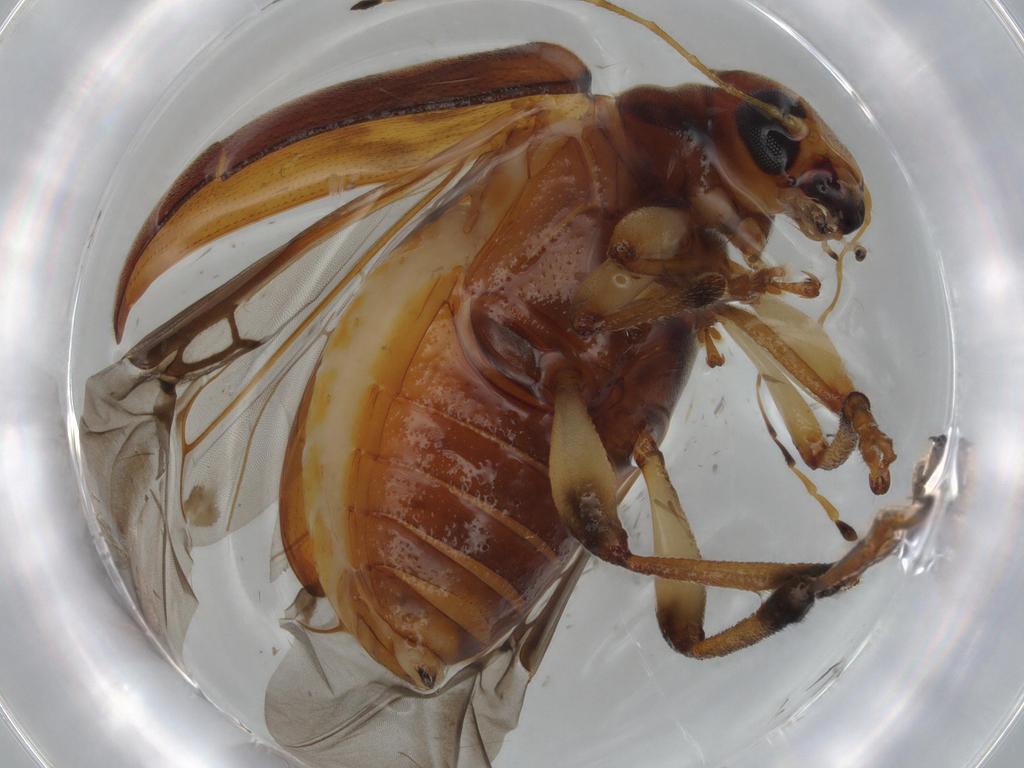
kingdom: Animalia
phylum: Arthropoda
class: Insecta
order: Coleoptera
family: Chrysomelidae
